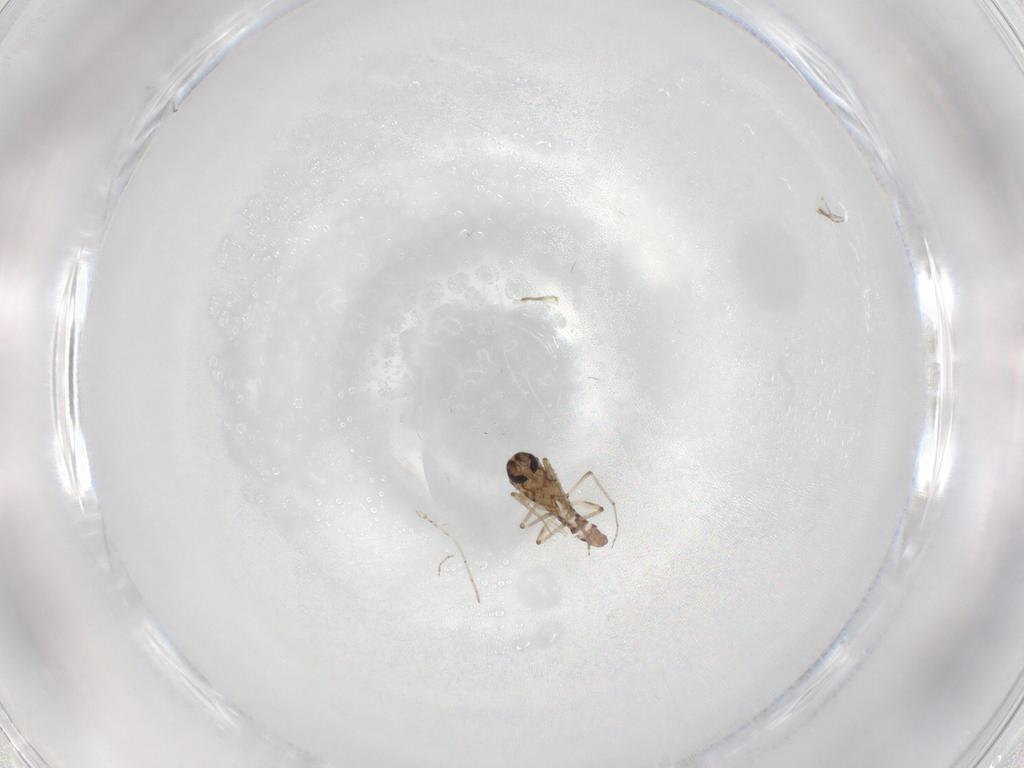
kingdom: Animalia
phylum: Arthropoda
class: Insecta
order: Diptera
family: Ceratopogonidae
